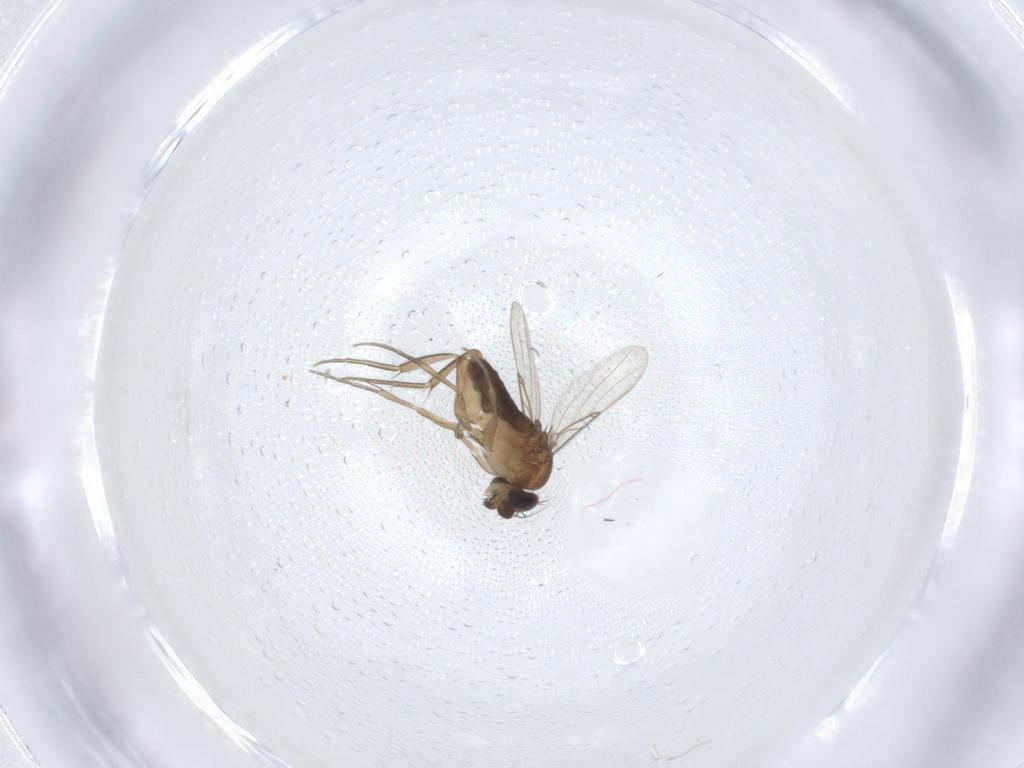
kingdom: Animalia
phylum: Arthropoda
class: Insecta
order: Diptera
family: Phoridae
